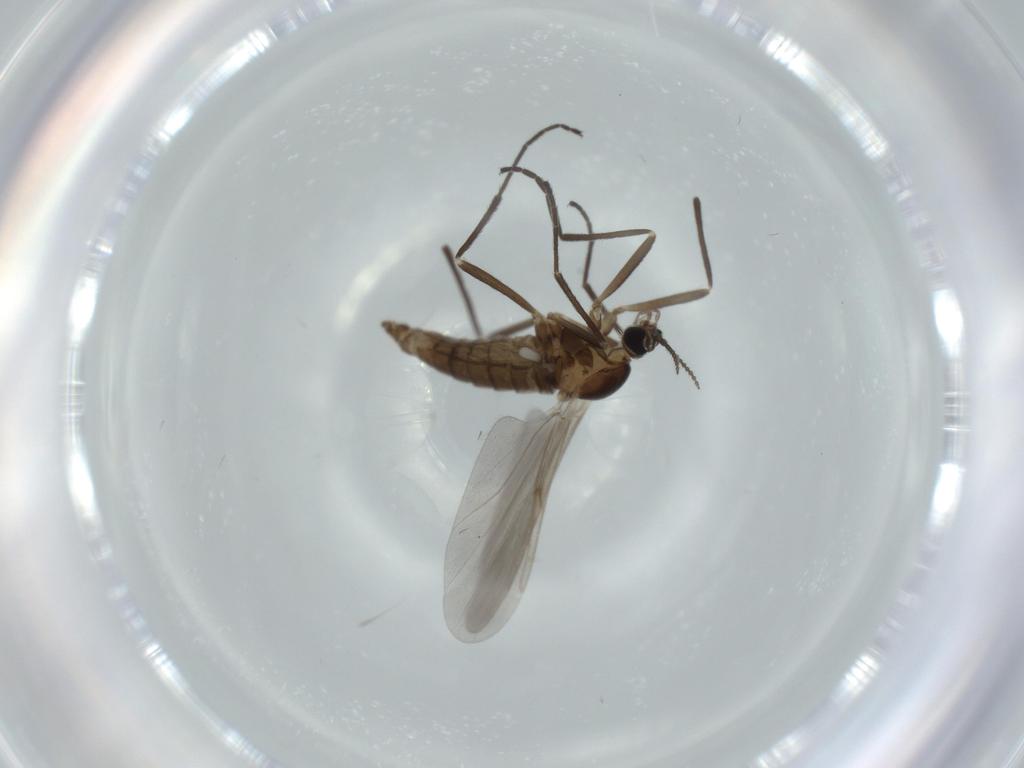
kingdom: Animalia
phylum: Arthropoda
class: Insecta
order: Diptera
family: Cecidomyiidae
